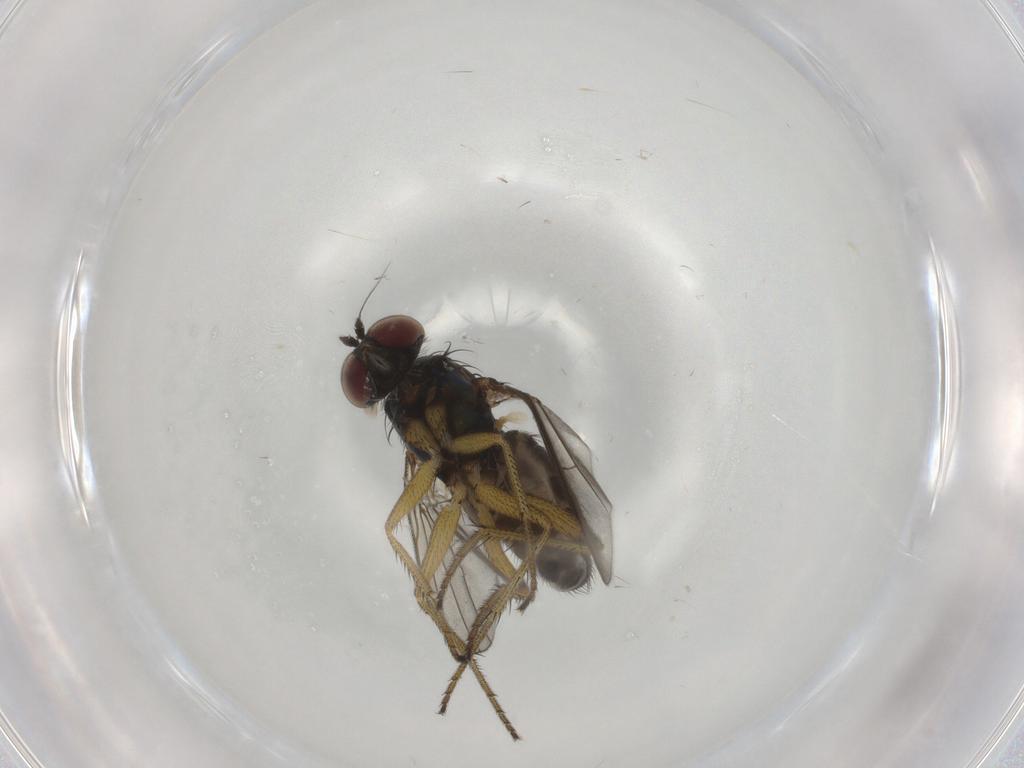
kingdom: Animalia
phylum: Arthropoda
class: Insecta
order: Diptera
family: Dolichopodidae
